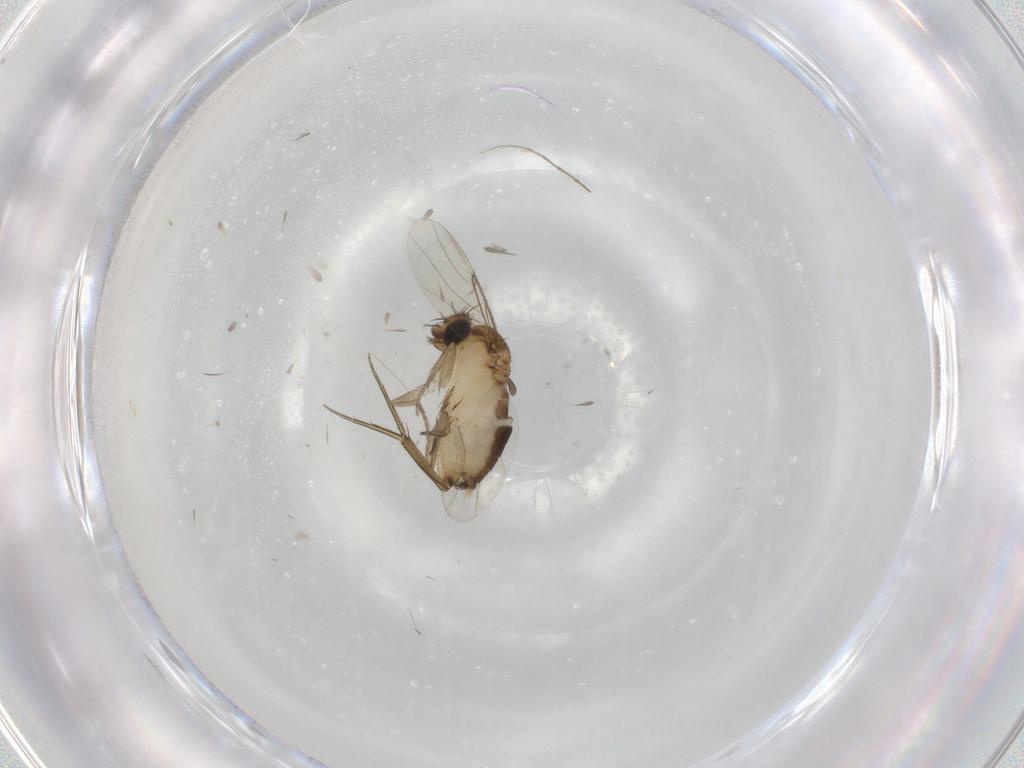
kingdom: Animalia
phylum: Arthropoda
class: Insecta
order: Diptera
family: Phoridae
